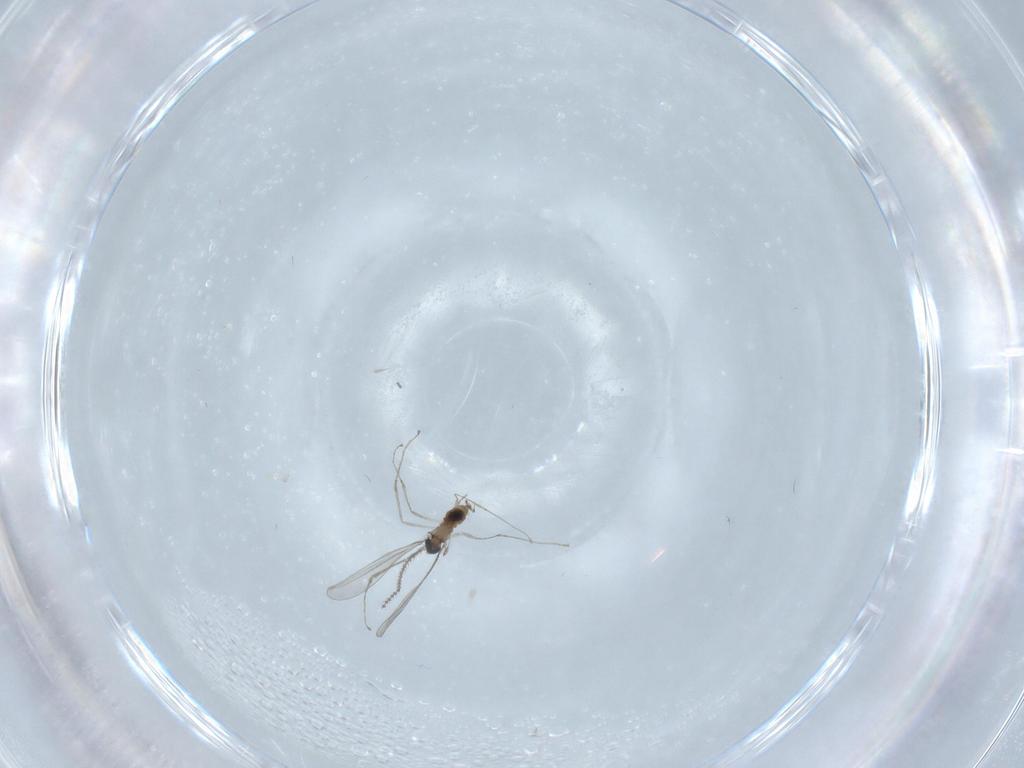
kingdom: Animalia
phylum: Arthropoda
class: Insecta
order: Diptera
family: Cecidomyiidae
